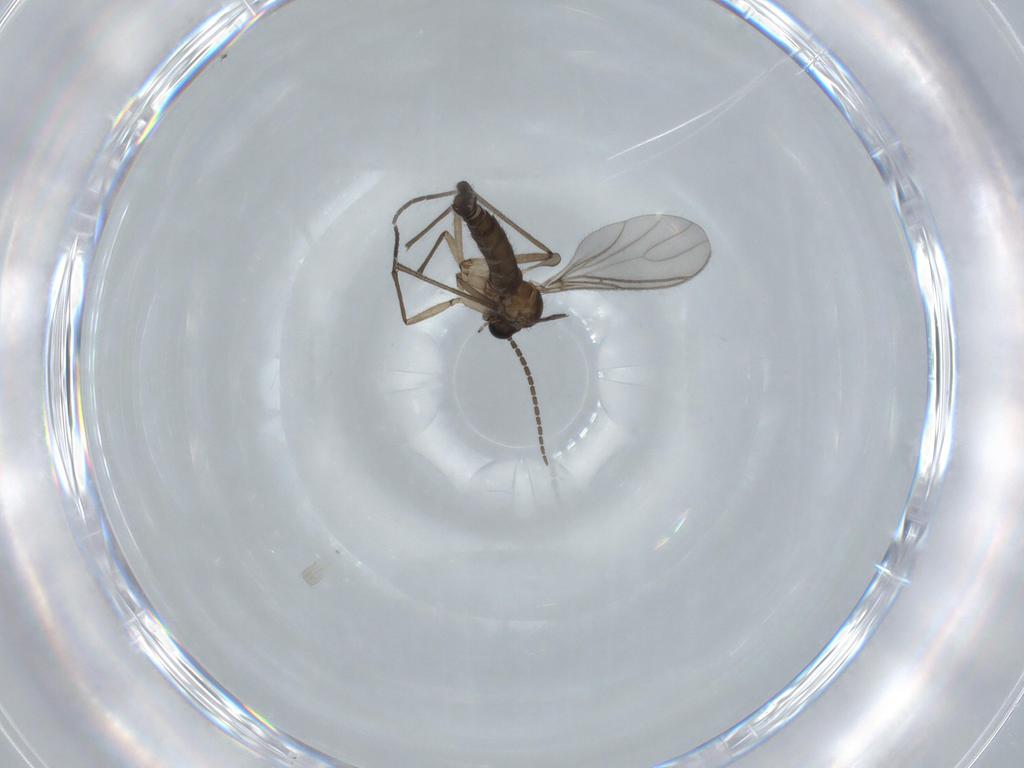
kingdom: Animalia
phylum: Arthropoda
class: Insecta
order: Diptera
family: Sciaridae
